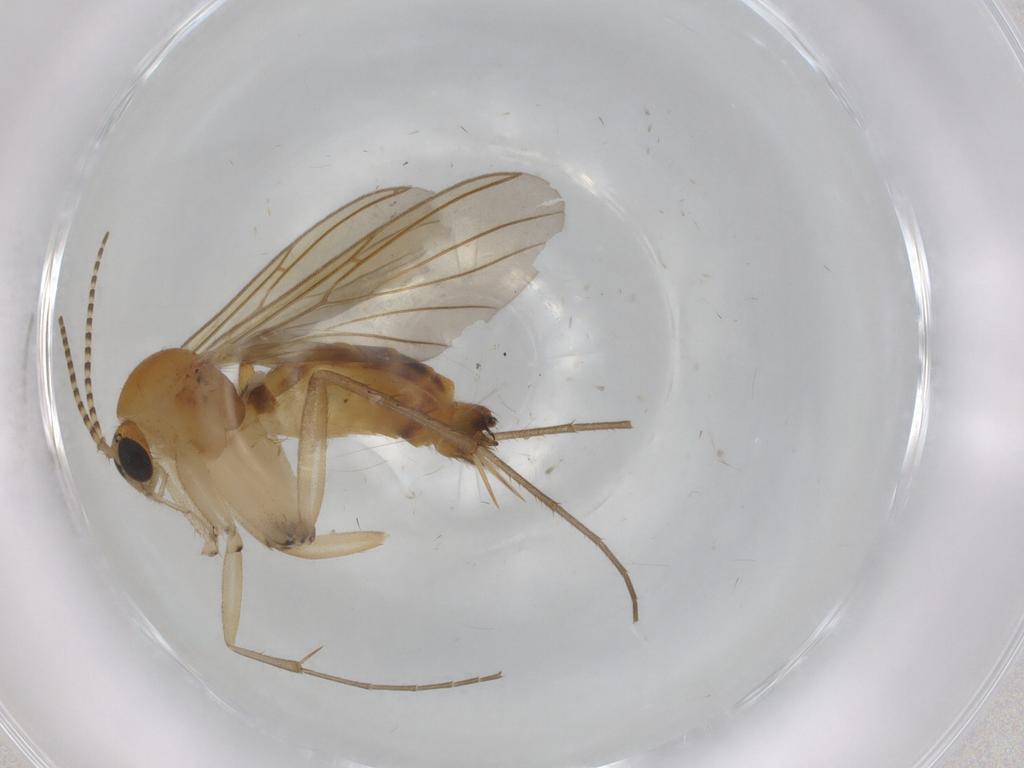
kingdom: Animalia
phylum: Arthropoda
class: Insecta
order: Diptera
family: Mycetophilidae
